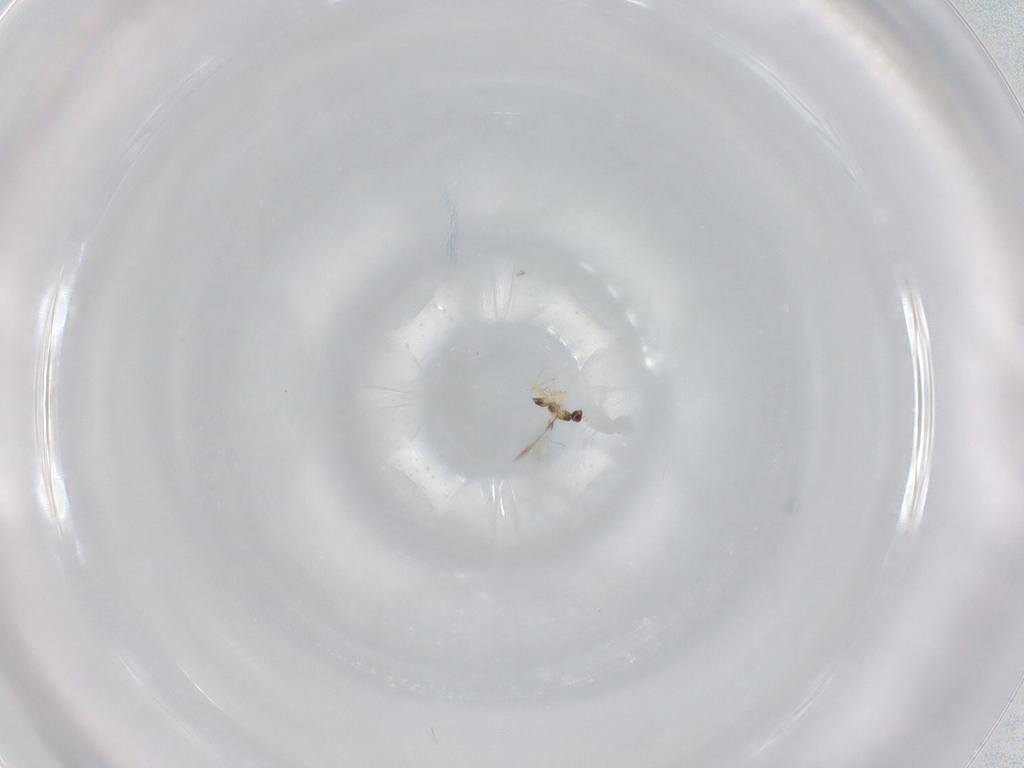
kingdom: Animalia
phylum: Arthropoda
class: Insecta
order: Hymenoptera
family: Mymaridae
